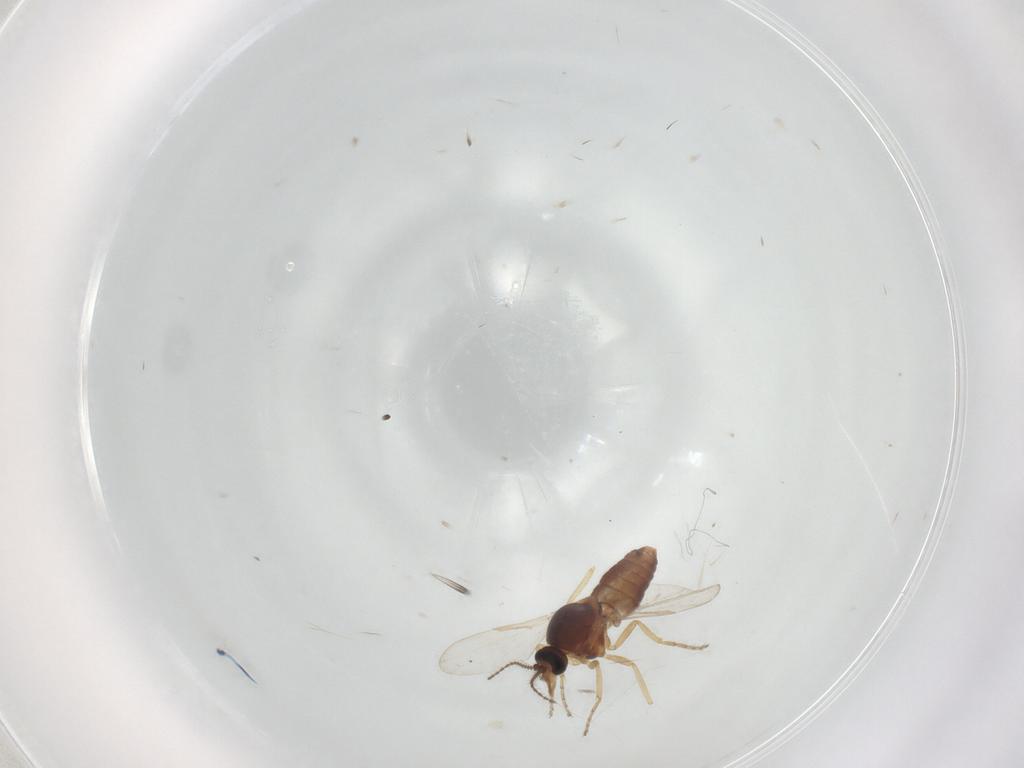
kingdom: Animalia
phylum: Arthropoda
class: Insecta
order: Diptera
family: Ceratopogonidae
